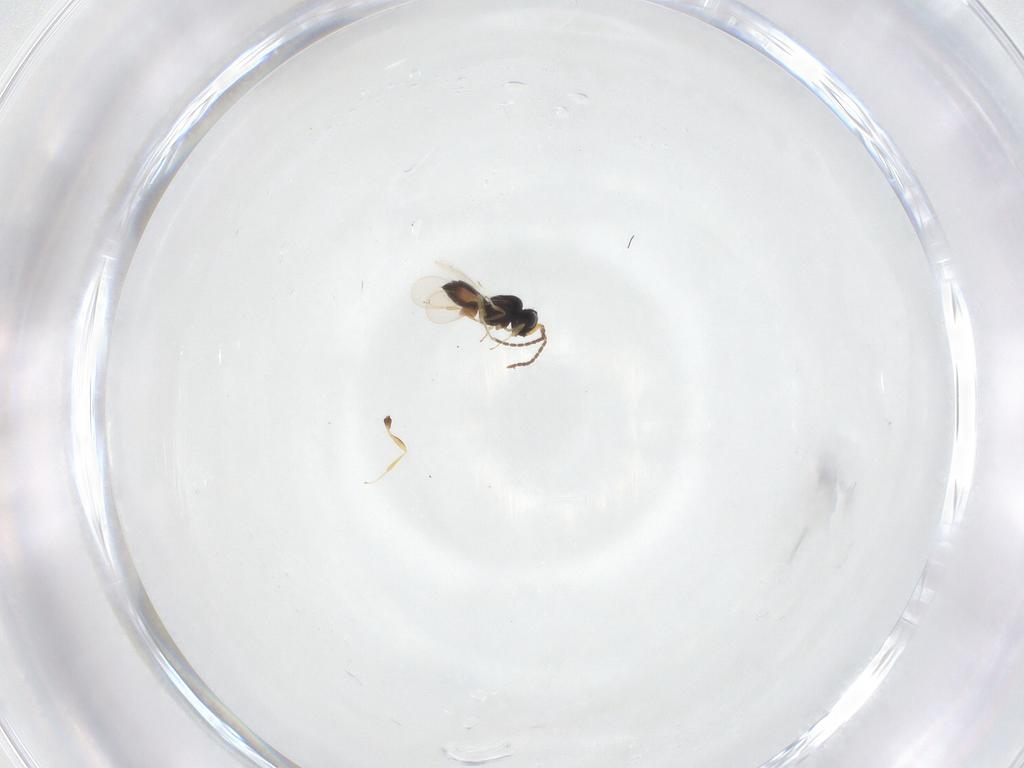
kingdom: Animalia
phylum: Arthropoda
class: Insecta
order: Hymenoptera
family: Scelionidae
